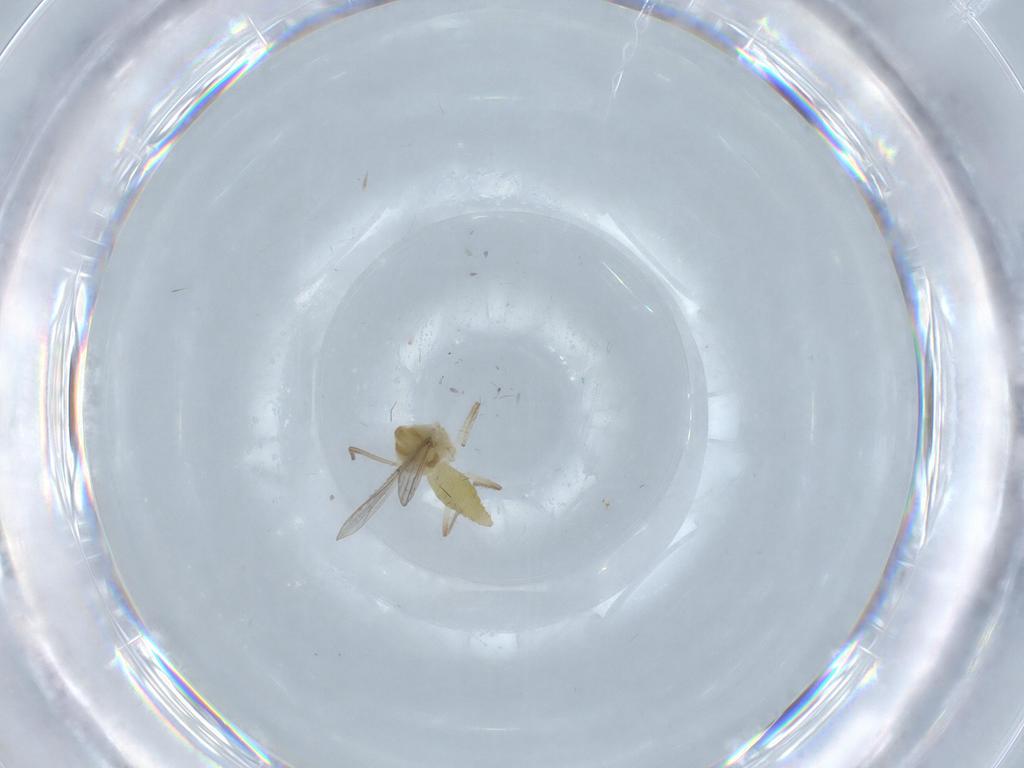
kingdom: Animalia
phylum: Arthropoda
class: Insecta
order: Diptera
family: Chironomidae
